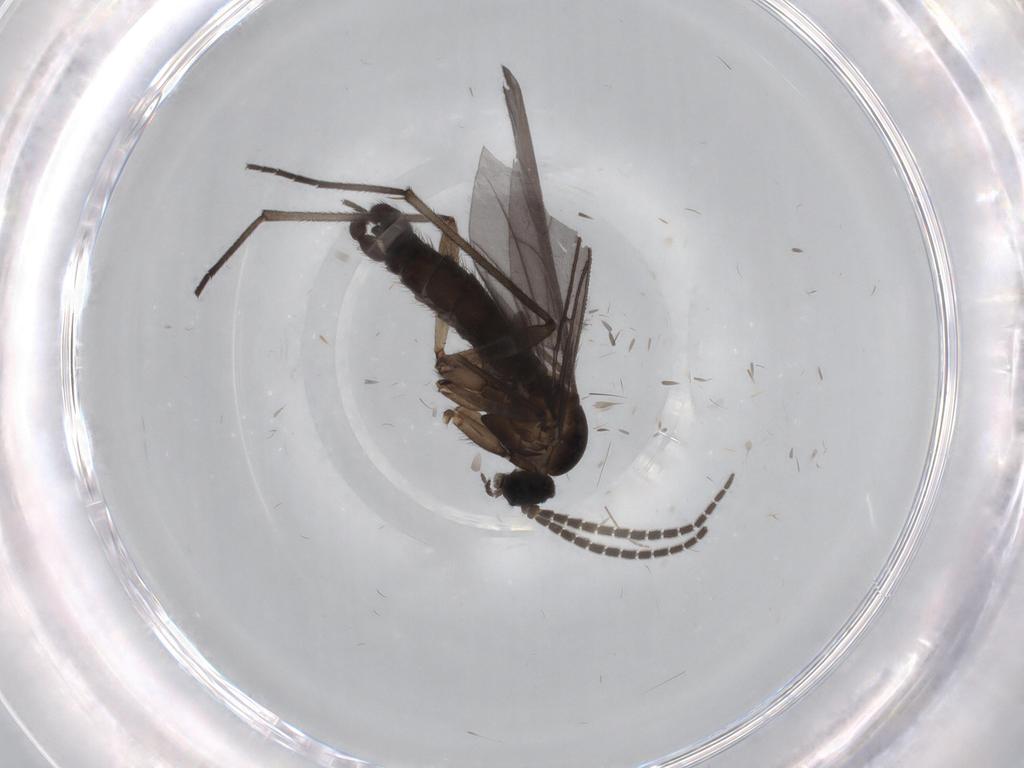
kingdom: Animalia
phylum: Arthropoda
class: Insecta
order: Diptera
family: Sciaridae
